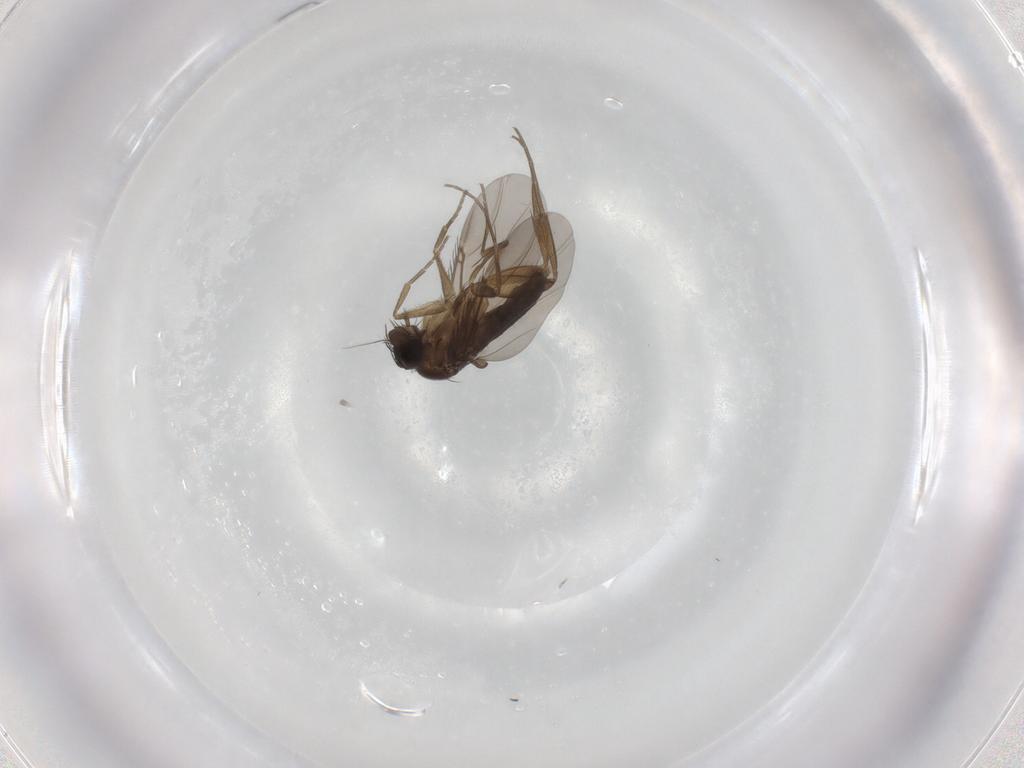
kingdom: Animalia
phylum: Arthropoda
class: Insecta
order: Diptera
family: Phoridae
